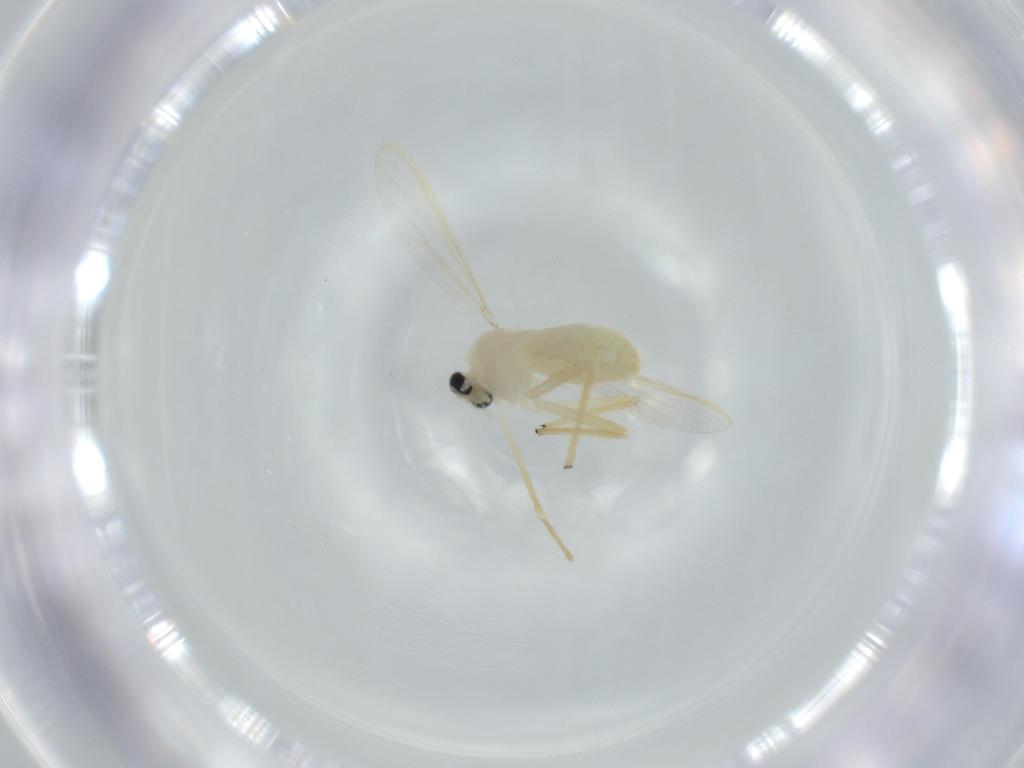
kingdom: Animalia
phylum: Arthropoda
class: Insecta
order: Diptera
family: Chironomidae
